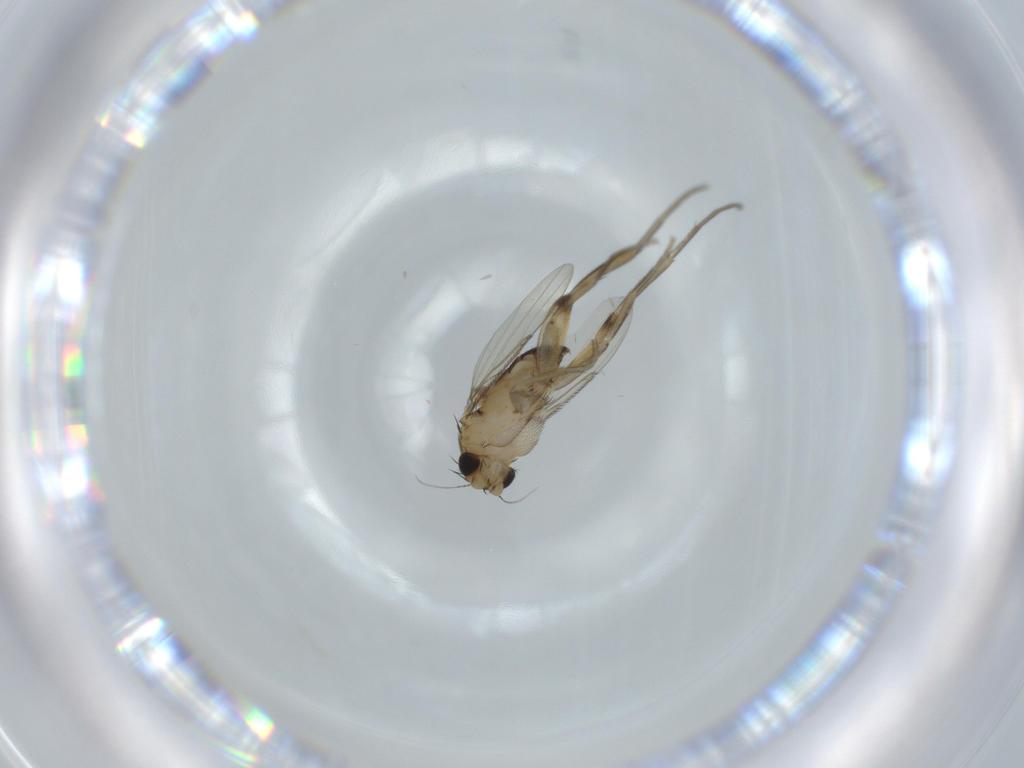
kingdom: Animalia
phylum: Arthropoda
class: Insecta
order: Diptera
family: Phoridae
